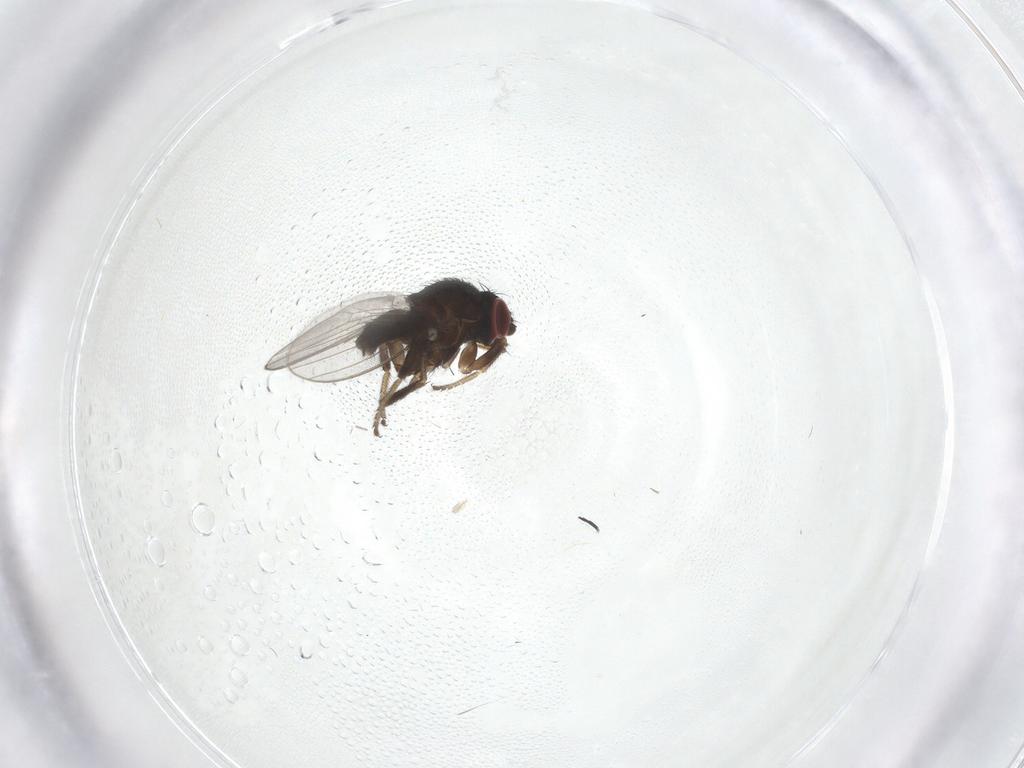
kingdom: Animalia
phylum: Arthropoda
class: Insecta
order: Diptera
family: Milichiidae
